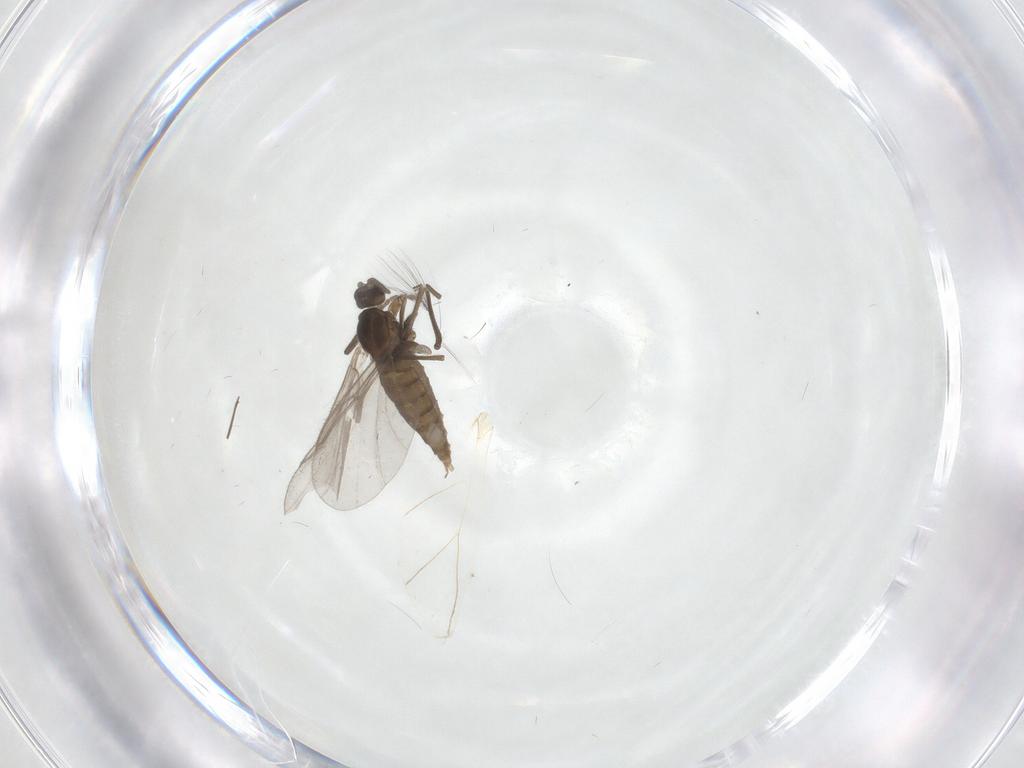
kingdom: Animalia
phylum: Arthropoda
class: Insecta
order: Diptera
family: Cecidomyiidae
